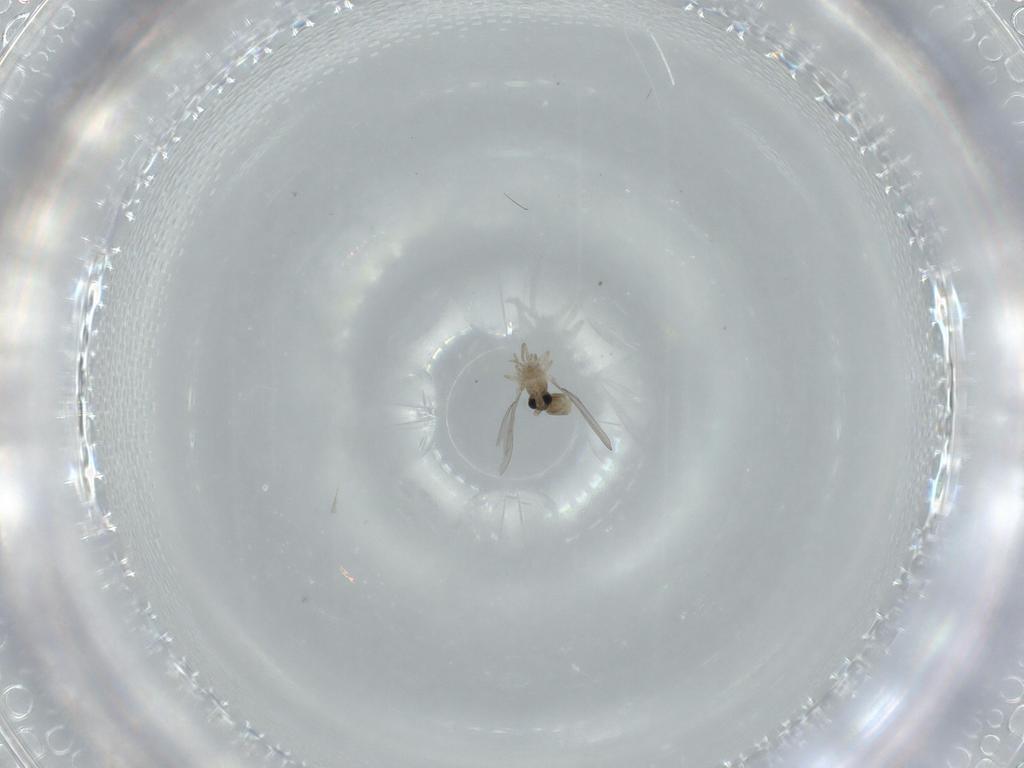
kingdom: Animalia
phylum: Arthropoda
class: Insecta
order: Diptera
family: Cecidomyiidae
